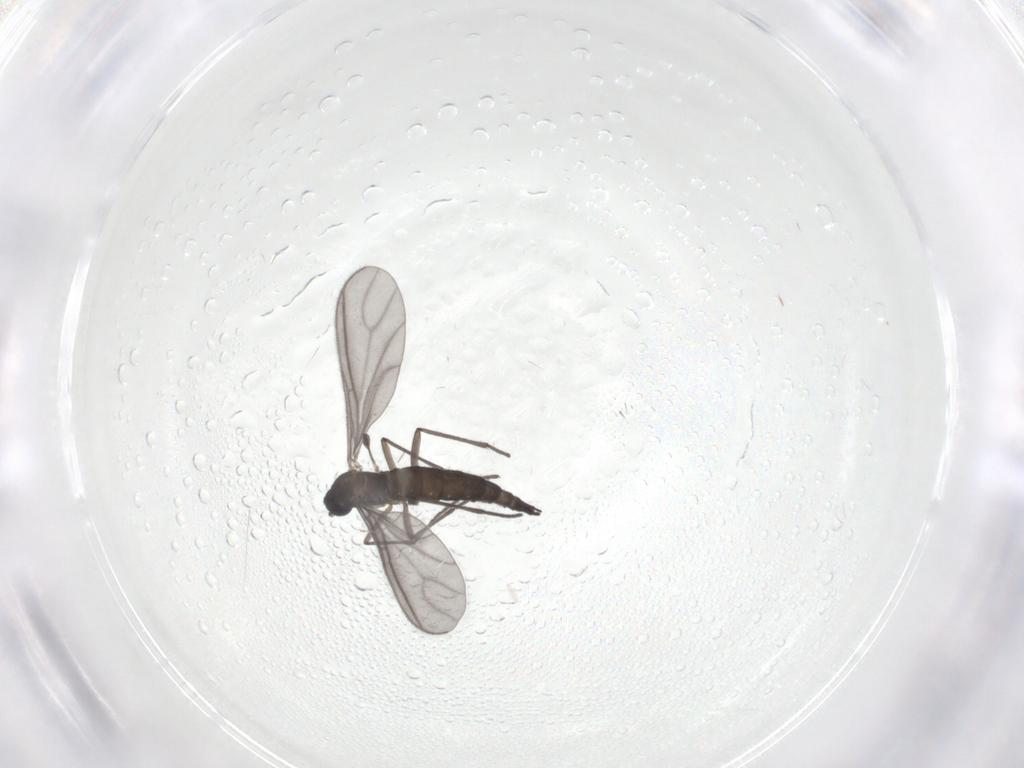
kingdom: Animalia
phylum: Arthropoda
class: Insecta
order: Diptera
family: Sciaridae
